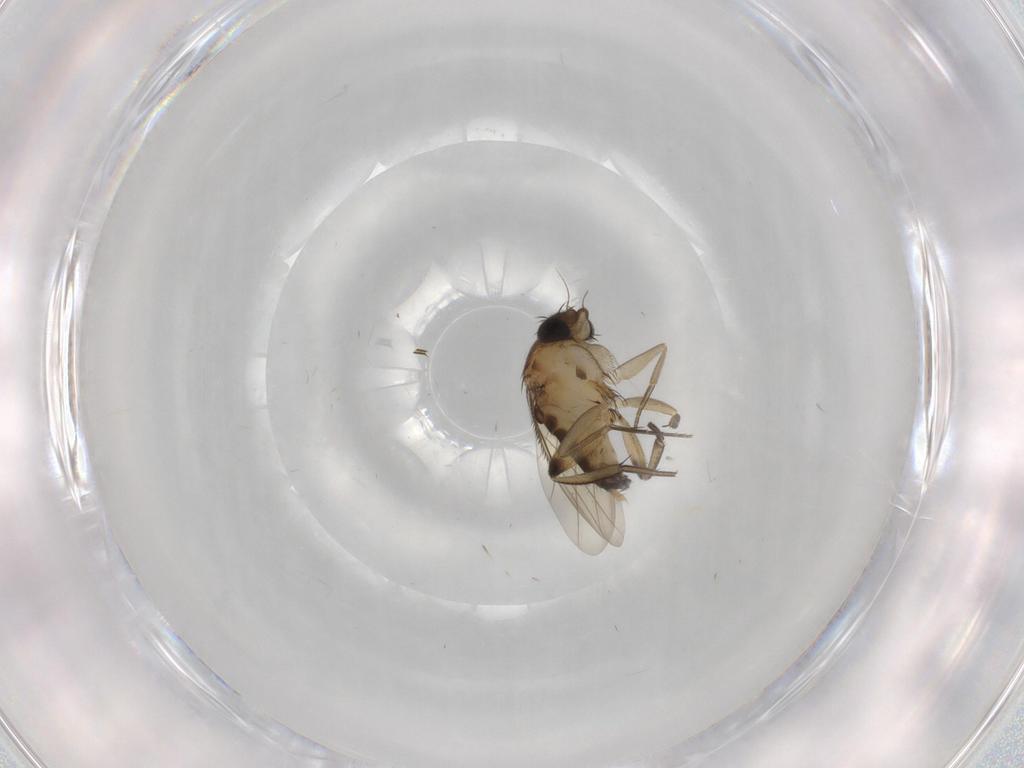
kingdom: Animalia
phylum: Arthropoda
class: Insecta
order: Diptera
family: Phoridae
